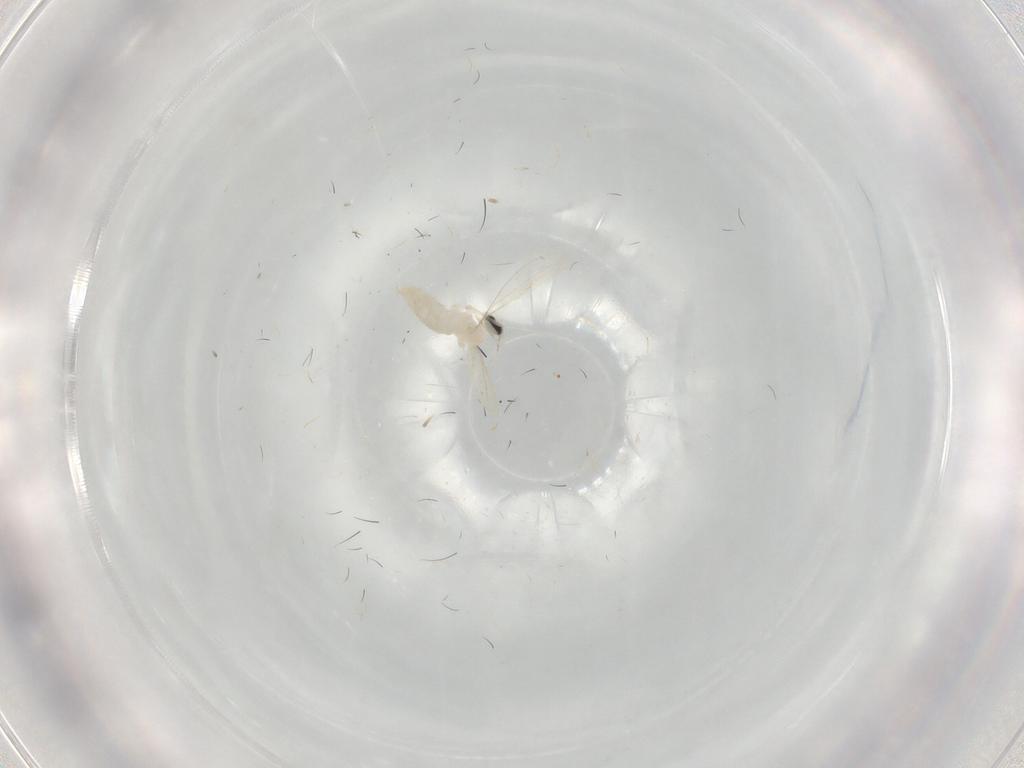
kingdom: Animalia
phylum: Arthropoda
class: Insecta
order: Diptera
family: Cecidomyiidae
